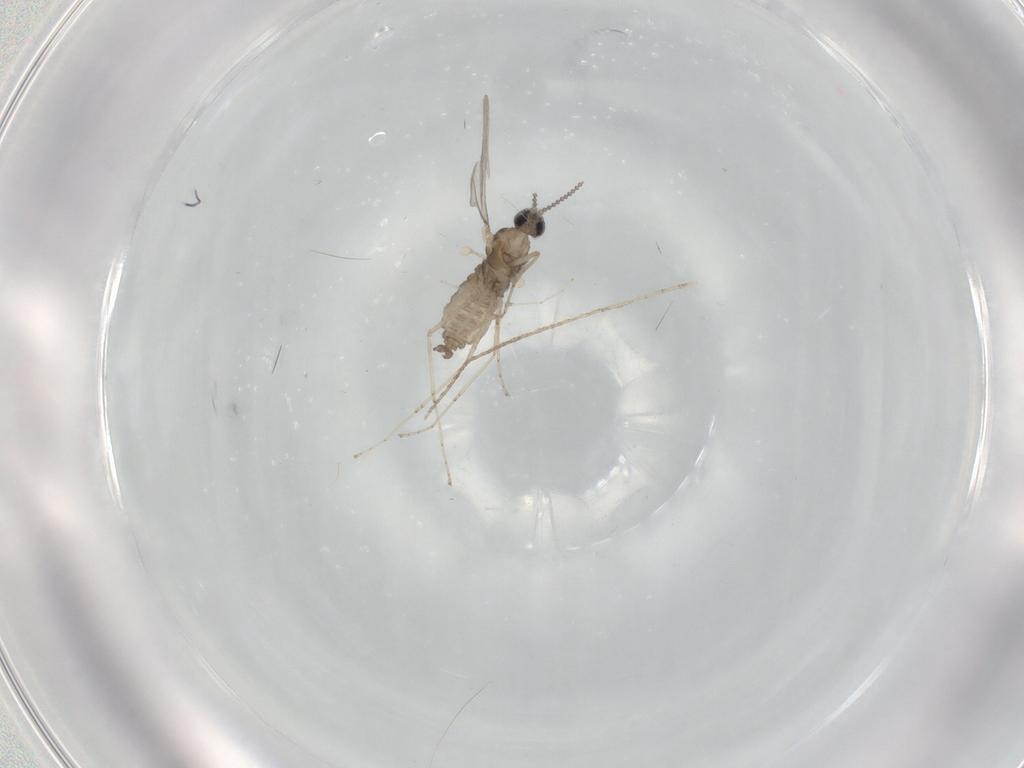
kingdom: Animalia
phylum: Arthropoda
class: Insecta
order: Diptera
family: Cecidomyiidae
